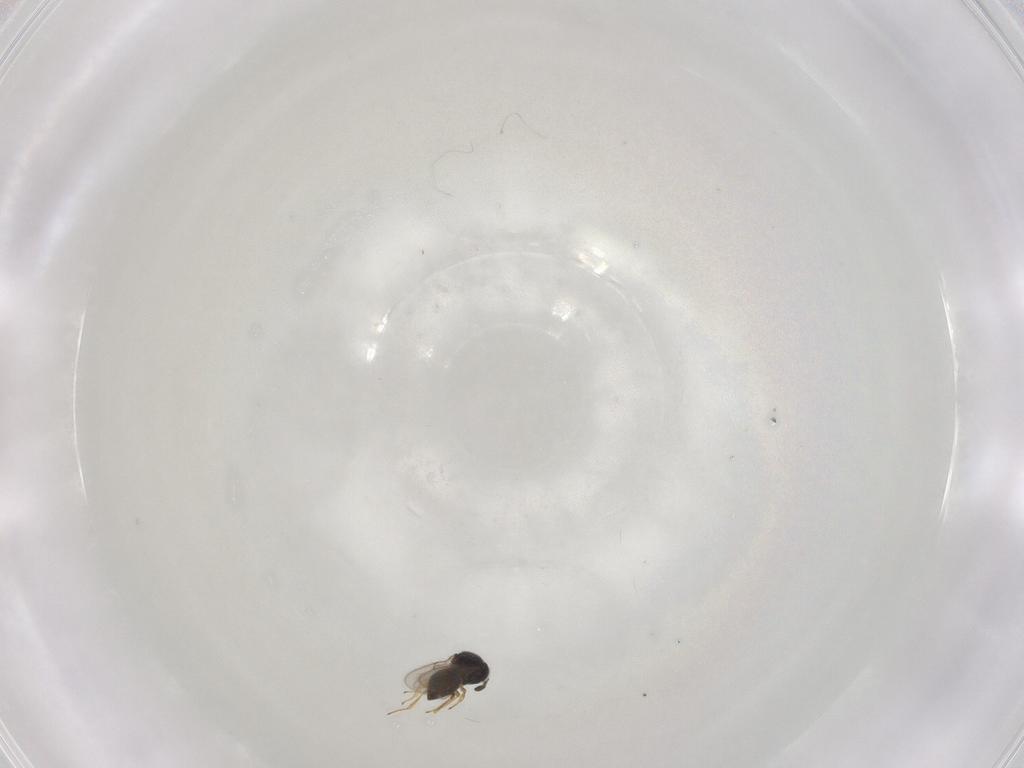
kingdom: Animalia
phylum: Arthropoda
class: Insecta
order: Hymenoptera
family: Scelionidae
